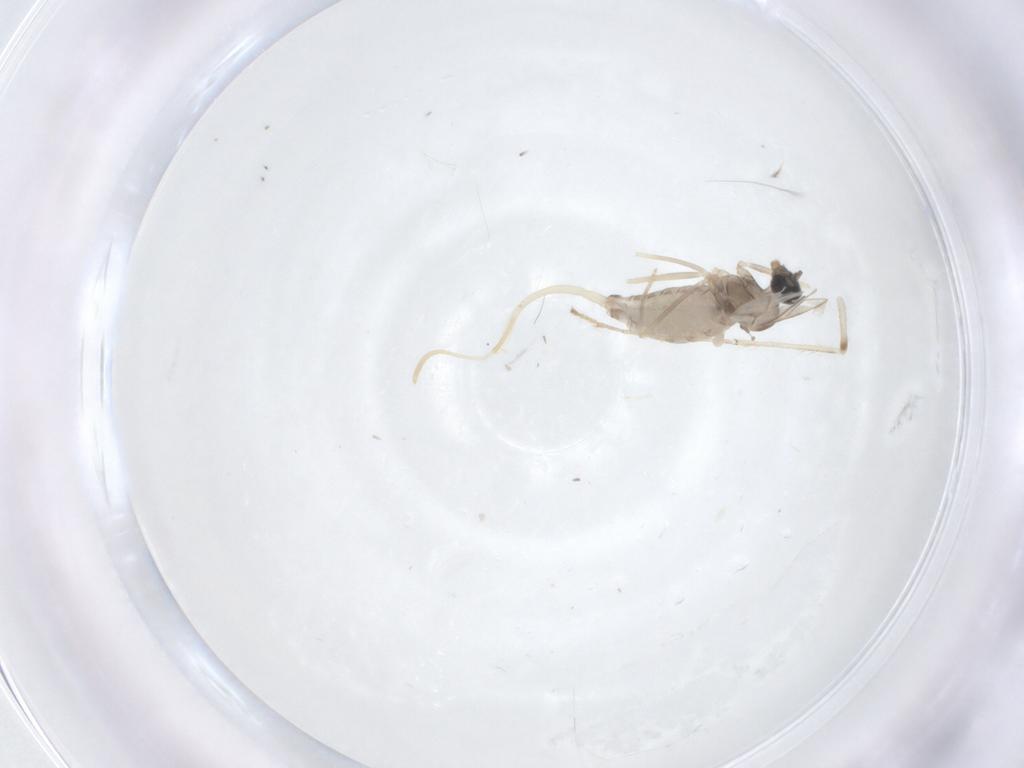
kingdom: Animalia
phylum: Arthropoda
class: Insecta
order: Diptera
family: Cecidomyiidae
